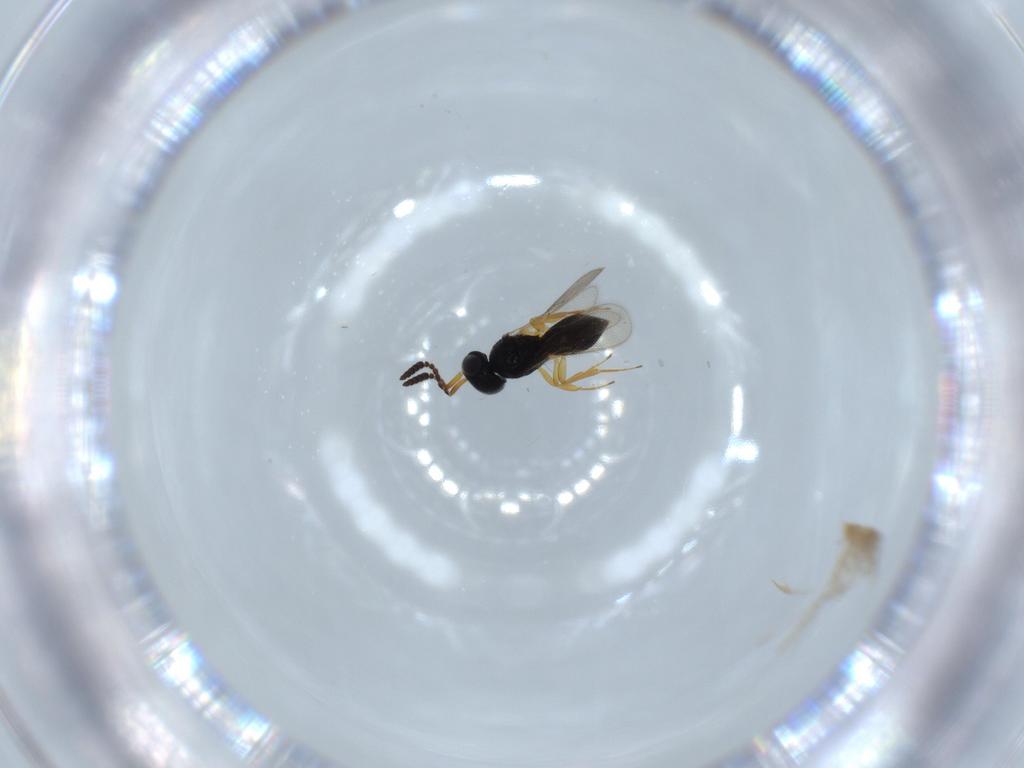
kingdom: Animalia
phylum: Arthropoda
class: Insecta
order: Hymenoptera
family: Scelionidae
